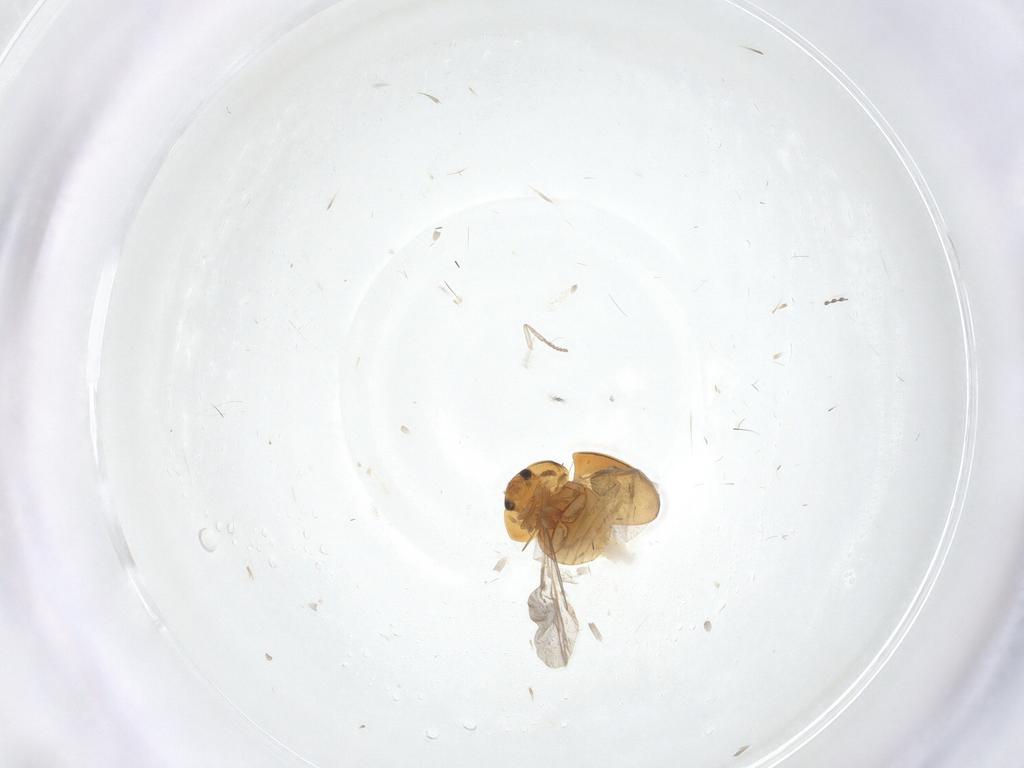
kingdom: Animalia
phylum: Arthropoda
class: Insecta
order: Coleoptera
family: Phalacridae
